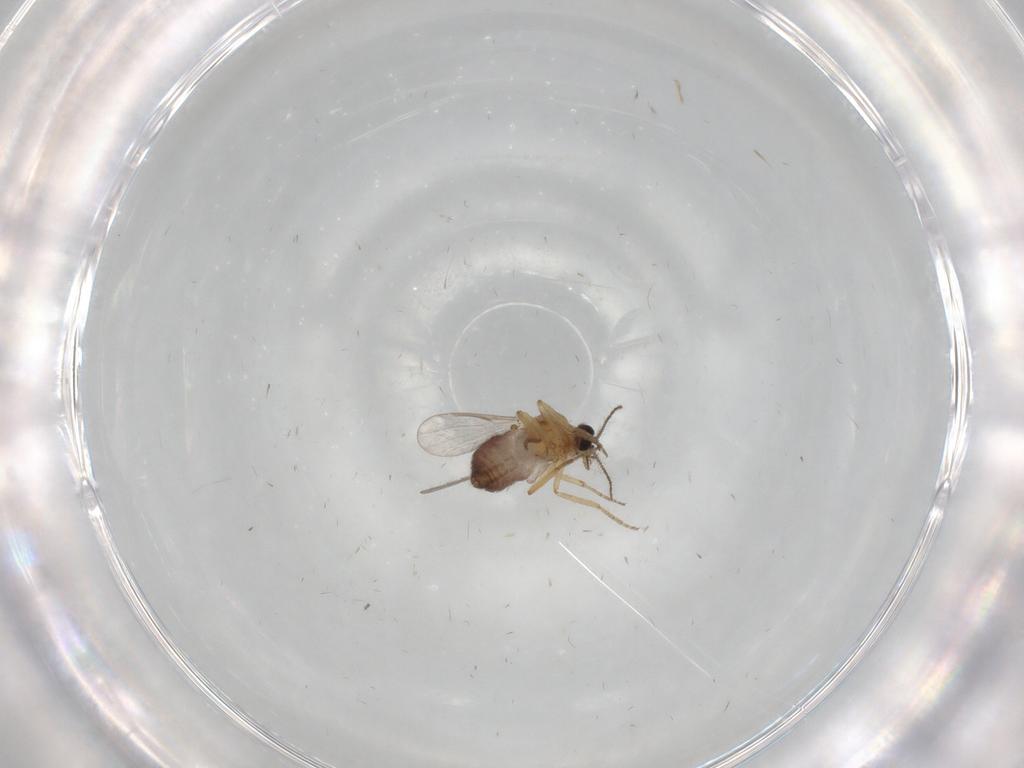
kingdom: Animalia
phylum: Arthropoda
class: Insecta
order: Diptera
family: Ceratopogonidae
